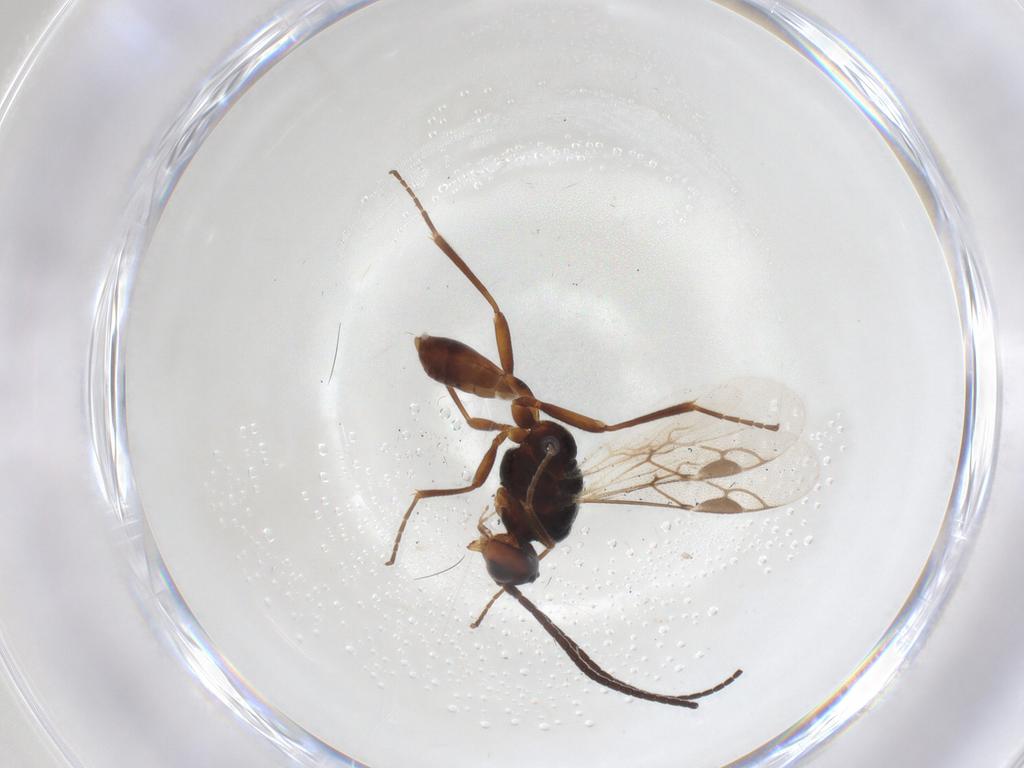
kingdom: Animalia
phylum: Arthropoda
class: Insecta
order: Hymenoptera
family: Braconidae
